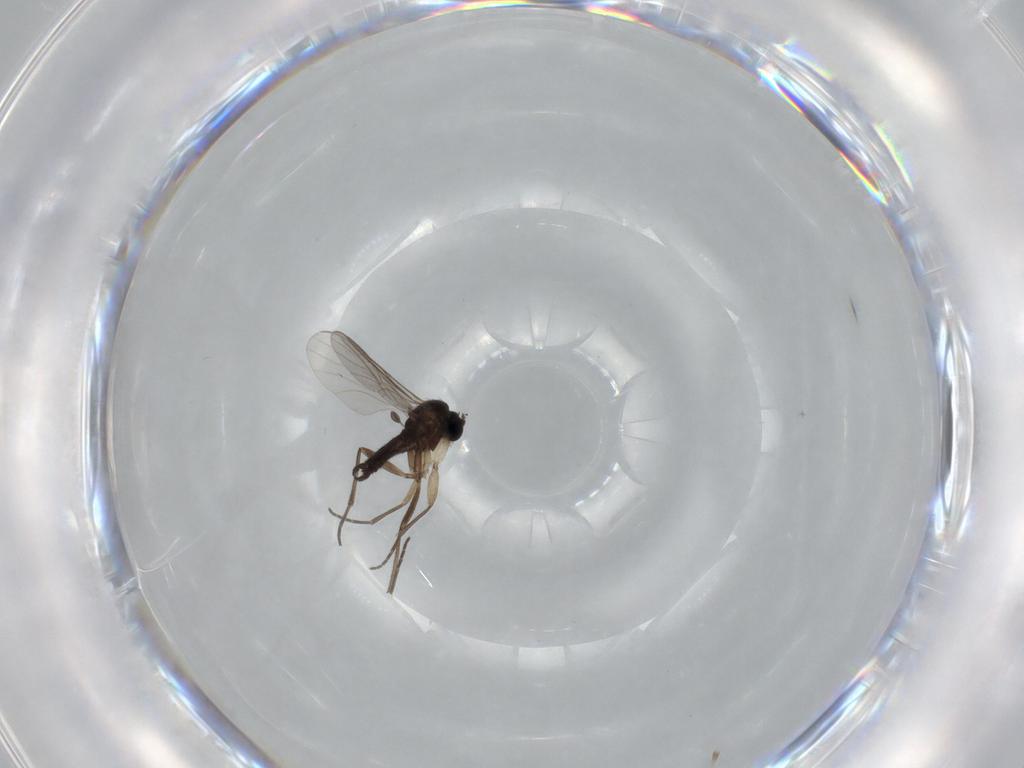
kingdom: Animalia
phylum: Arthropoda
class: Insecta
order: Diptera
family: Sciaridae
